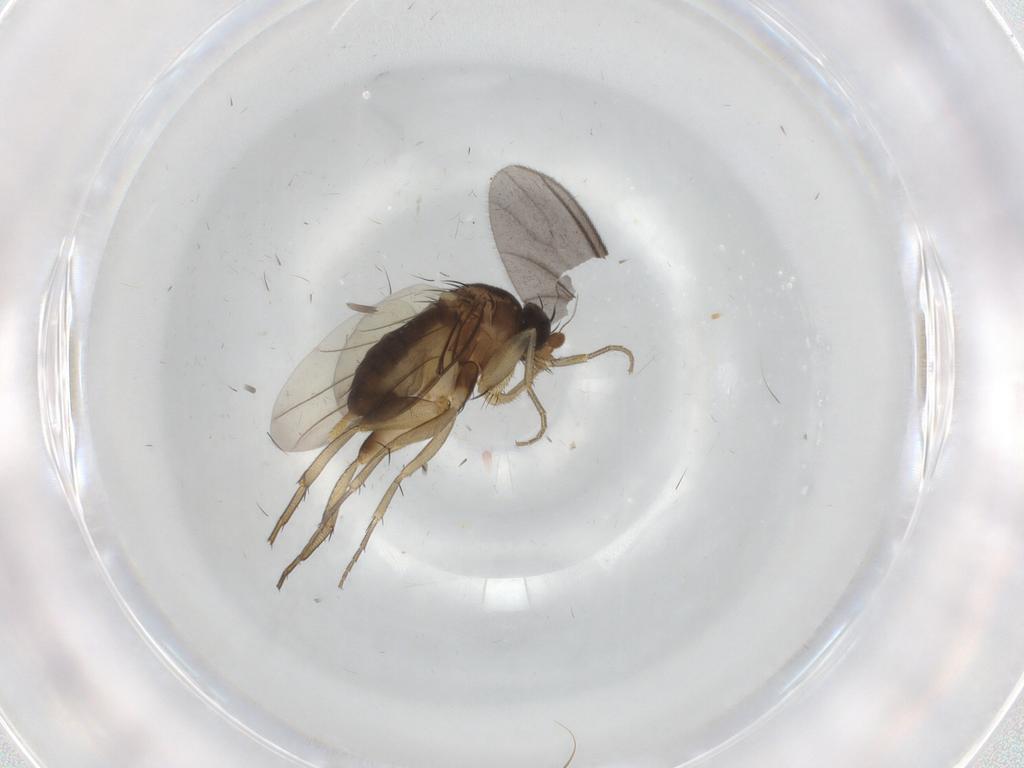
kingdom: Animalia
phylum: Arthropoda
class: Insecta
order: Diptera
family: Phoridae
